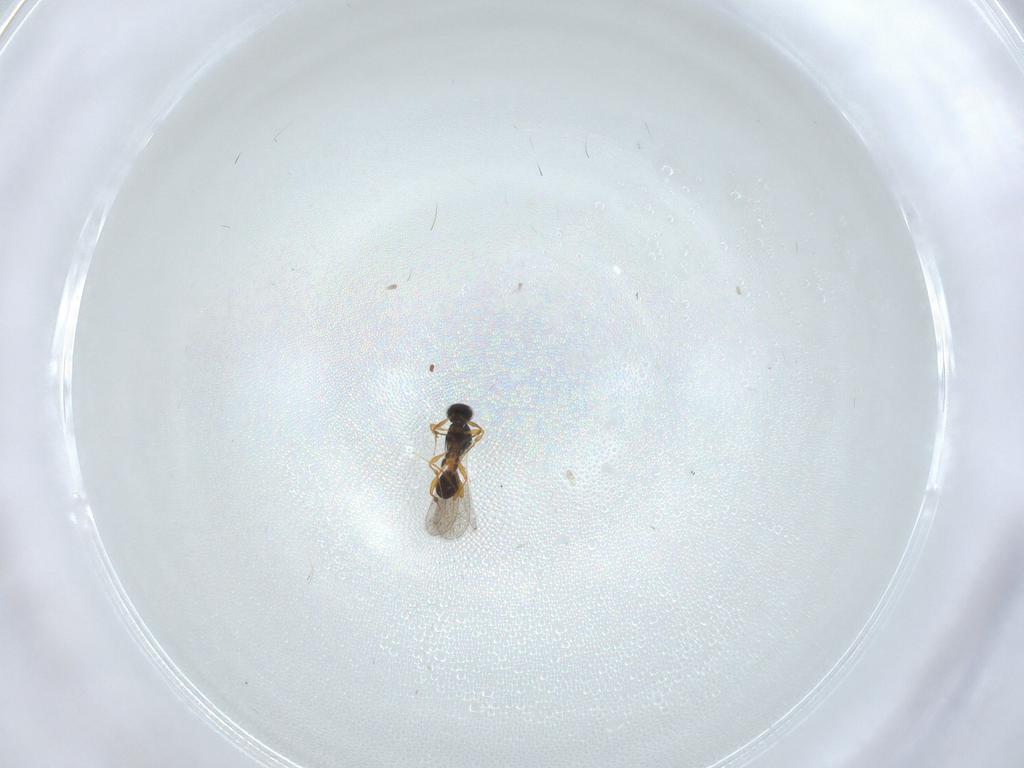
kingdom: Animalia
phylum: Arthropoda
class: Insecta
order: Hymenoptera
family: Platygastridae
